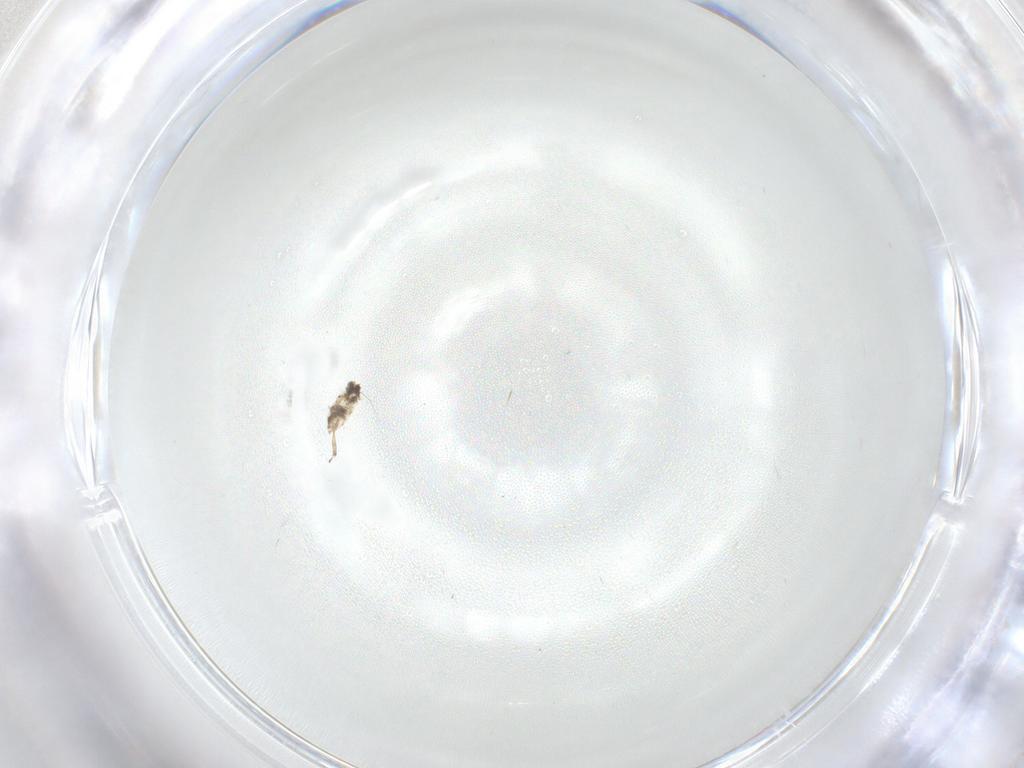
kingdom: Animalia
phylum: Arthropoda
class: Insecta
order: Diptera
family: Cecidomyiidae
